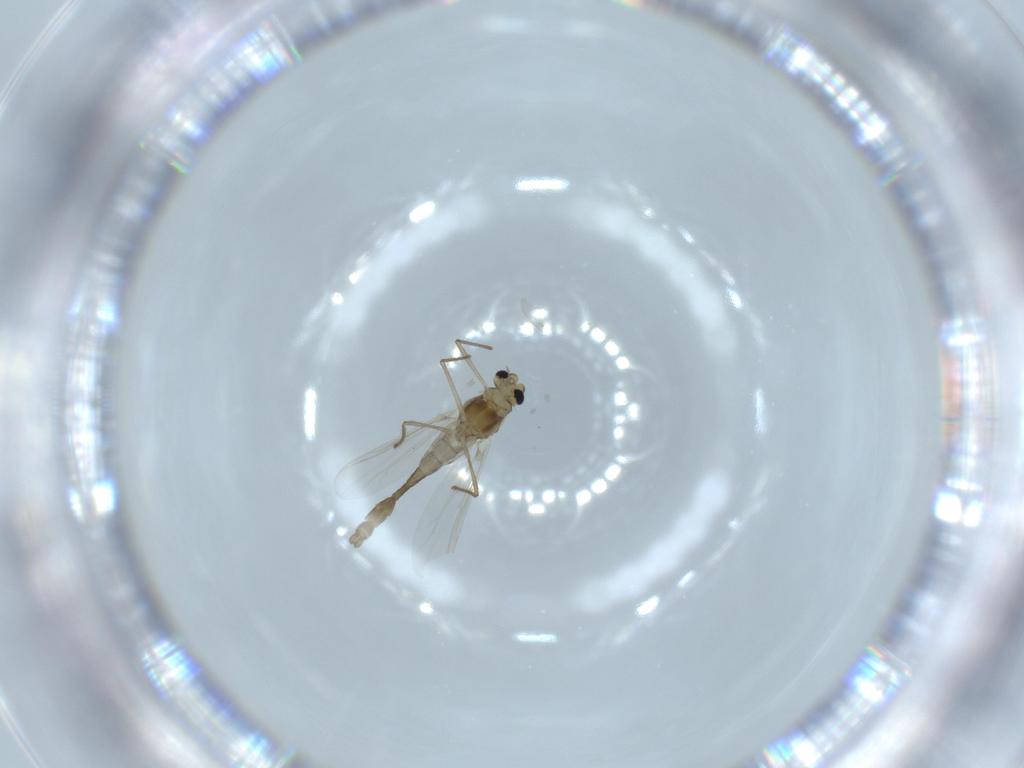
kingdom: Animalia
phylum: Arthropoda
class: Insecta
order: Diptera
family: Chironomidae
